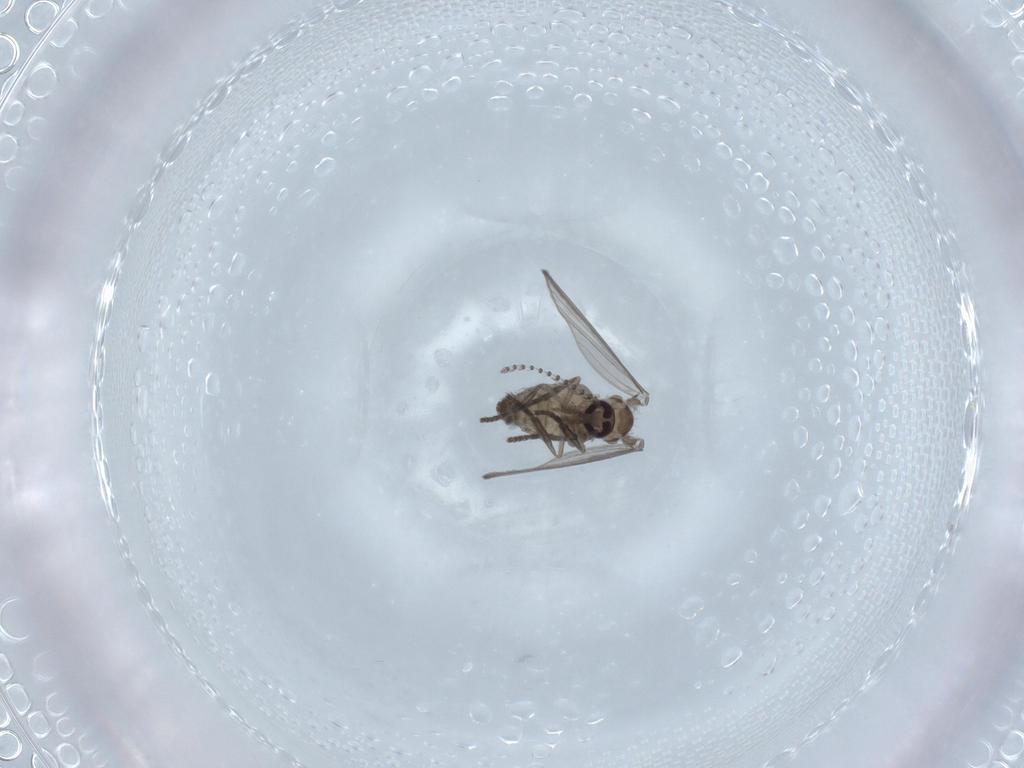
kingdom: Animalia
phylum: Arthropoda
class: Insecta
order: Diptera
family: Psychodidae
